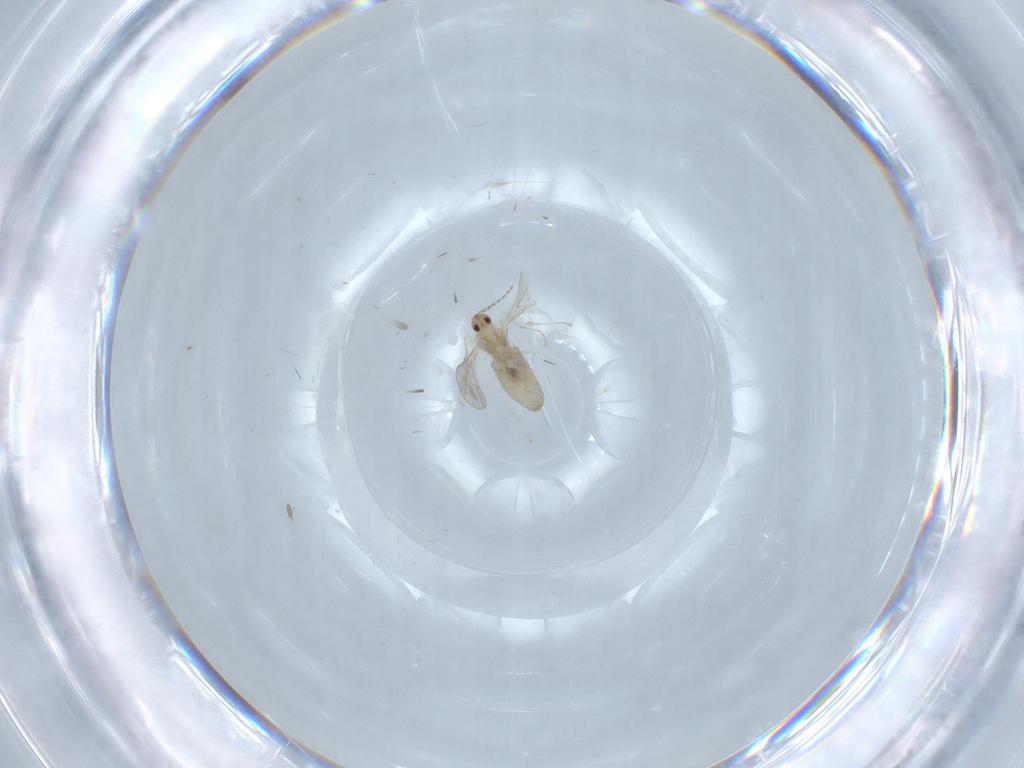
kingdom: Animalia
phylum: Arthropoda
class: Insecta
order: Diptera
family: Cecidomyiidae
